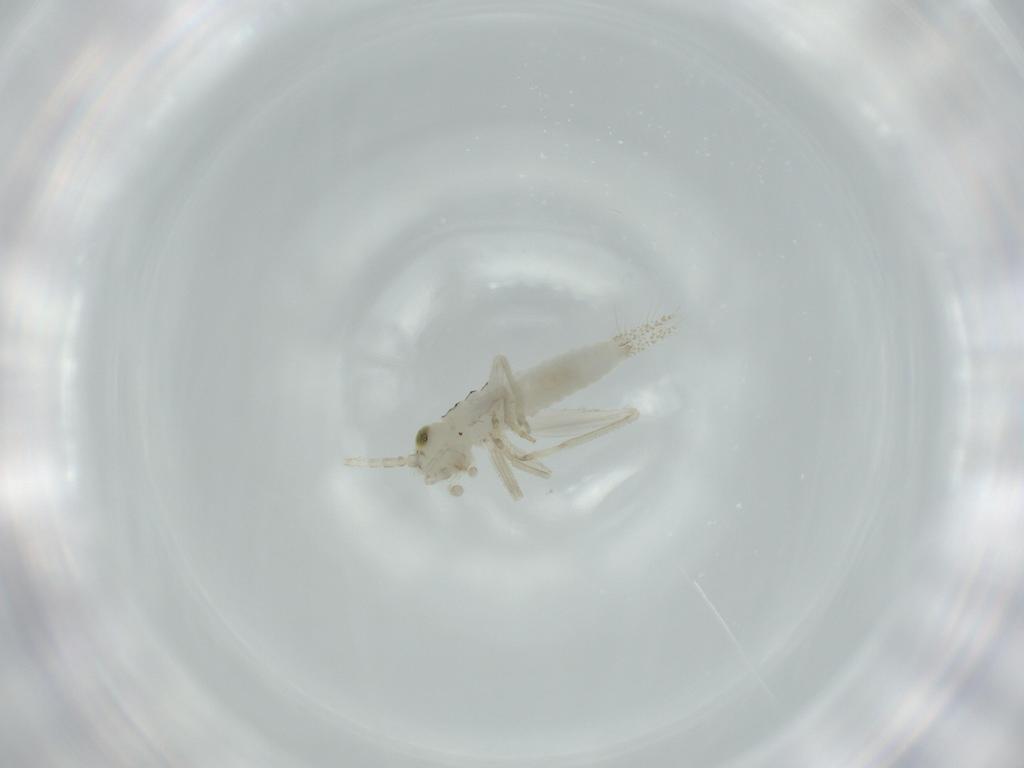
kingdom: Animalia
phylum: Arthropoda
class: Insecta
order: Orthoptera
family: Trigonidiidae
